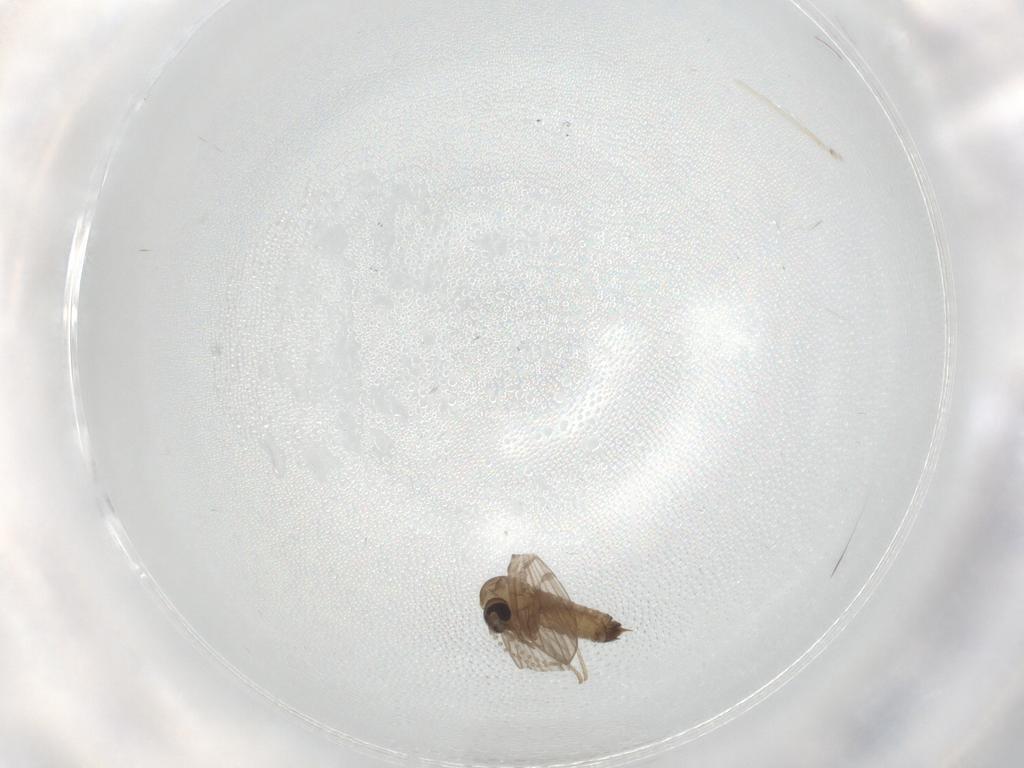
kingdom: Animalia
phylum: Arthropoda
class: Insecta
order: Diptera
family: Psychodidae
